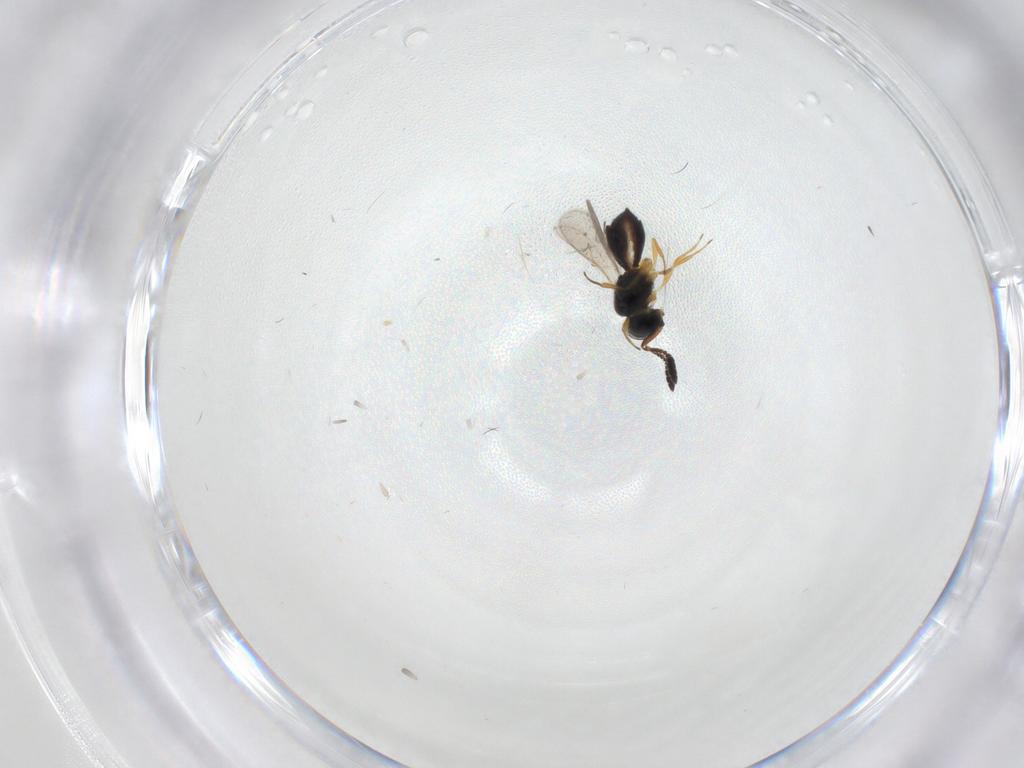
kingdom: Animalia
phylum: Arthropoda
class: Insecta
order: Hymenoptera
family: Scelionidae
